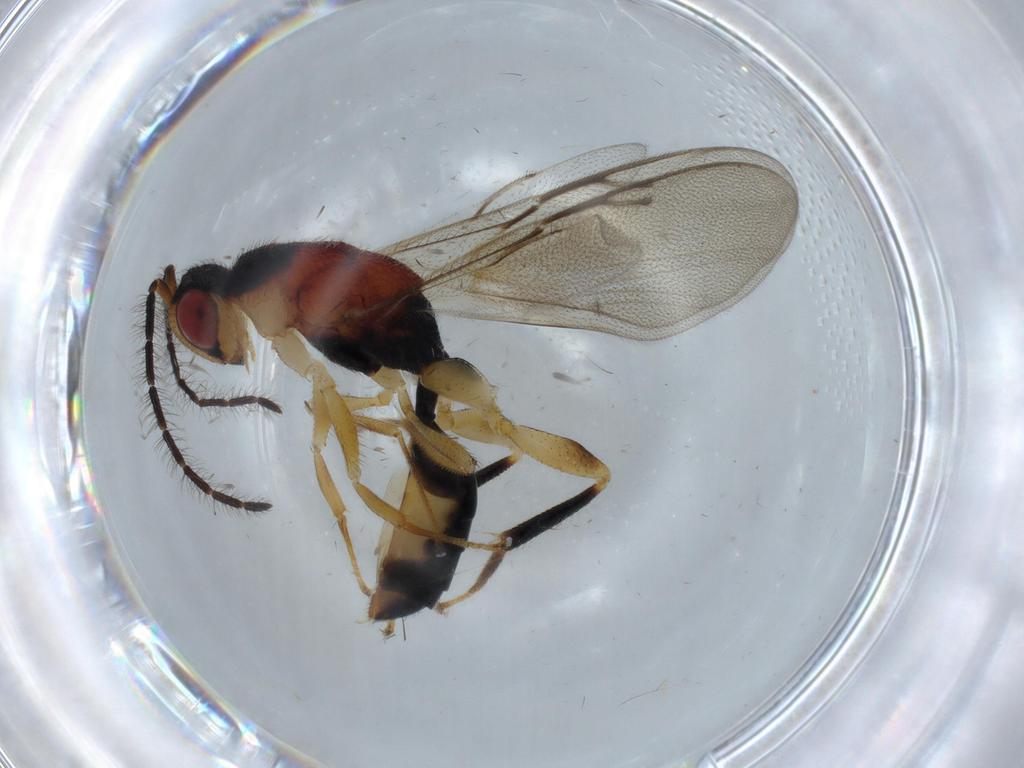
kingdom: Animalia
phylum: Arthropoda
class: Insecta
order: Hymenoptera
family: Eurytomidae
